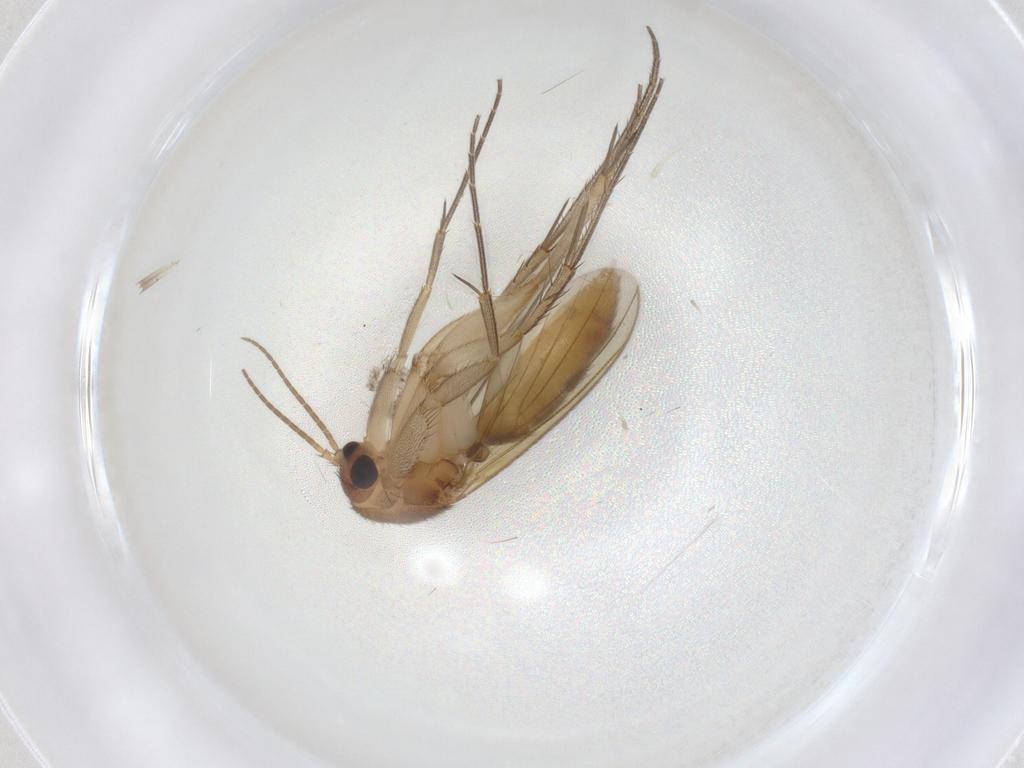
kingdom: Animalia
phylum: Arthropoda
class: Insecta
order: Diptera
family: Mycetophilidae
